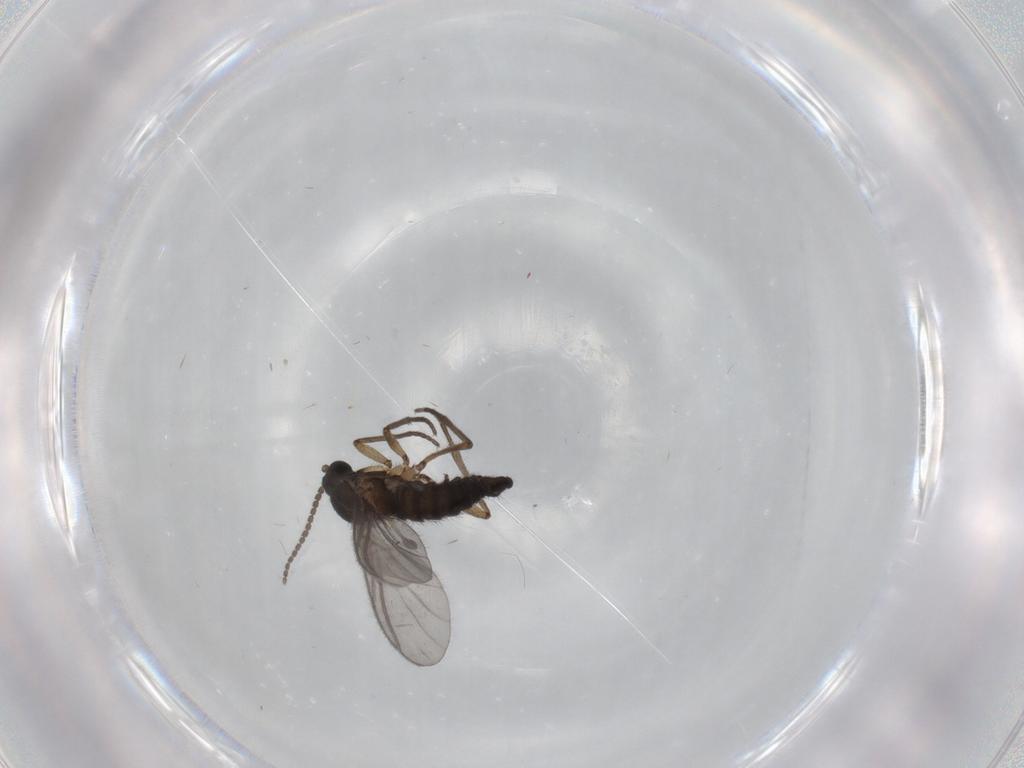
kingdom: Animalia
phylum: Arthropoda
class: Insecta
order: Diptera
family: Sciaridae
